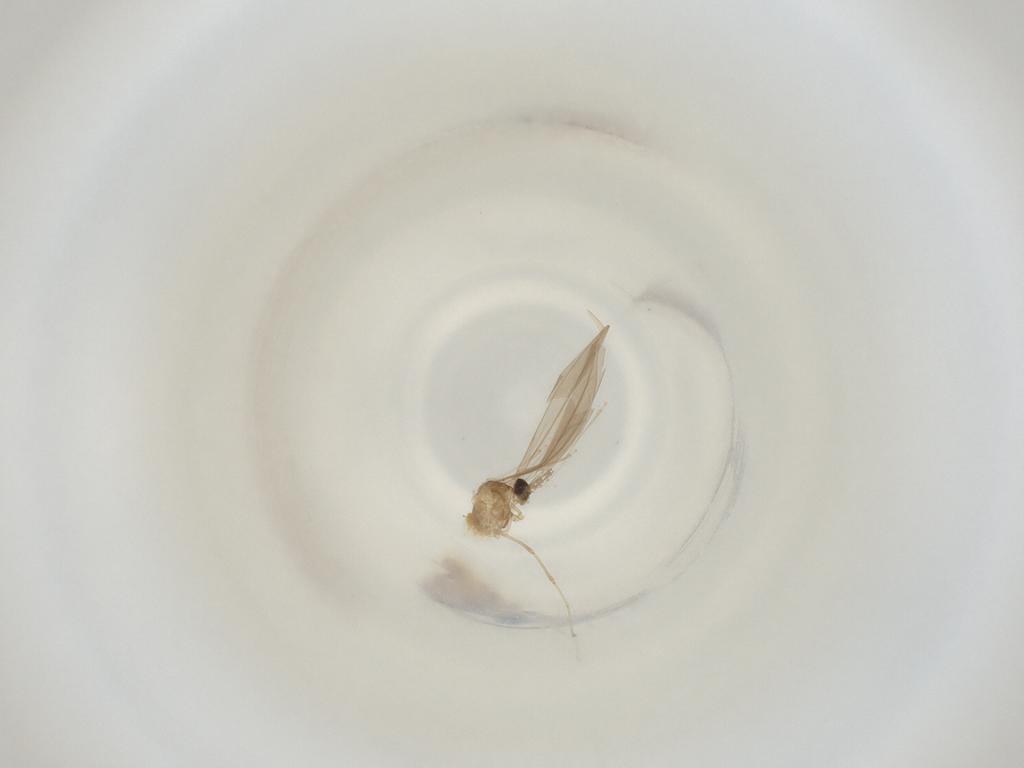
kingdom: Animalia
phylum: Arthropoda
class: Insecta
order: Diptera
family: Cecidomyiidae
